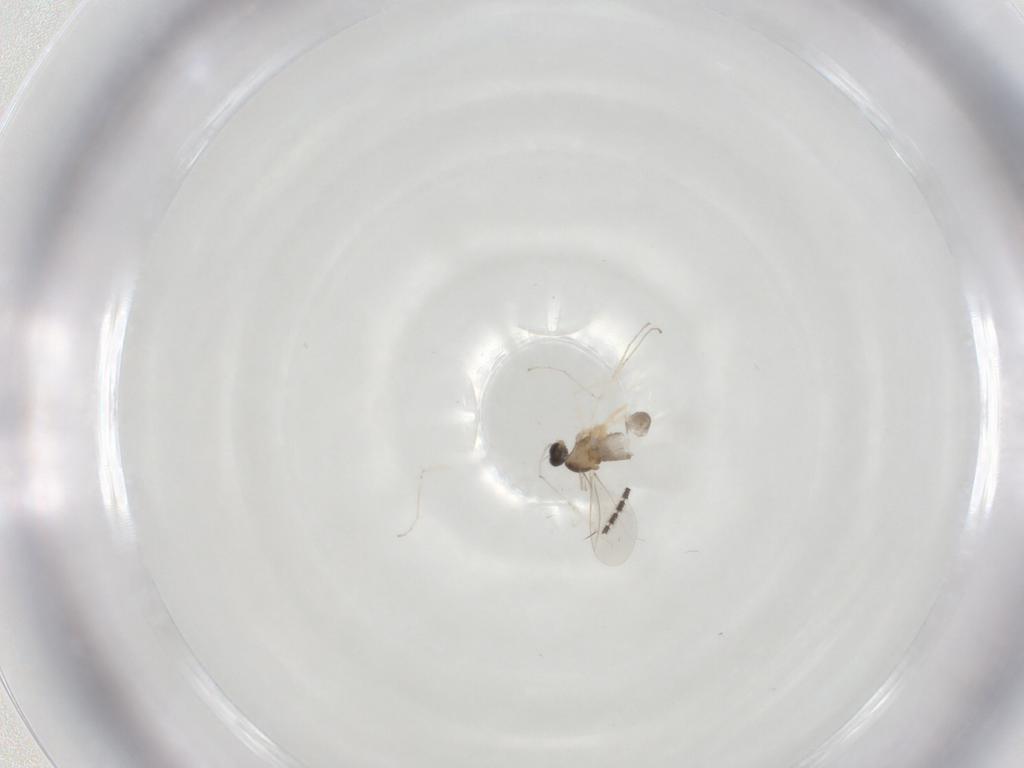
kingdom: Animalia
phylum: Arthropoda
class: Insecta
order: Diptera
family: Cecidomyiidae
